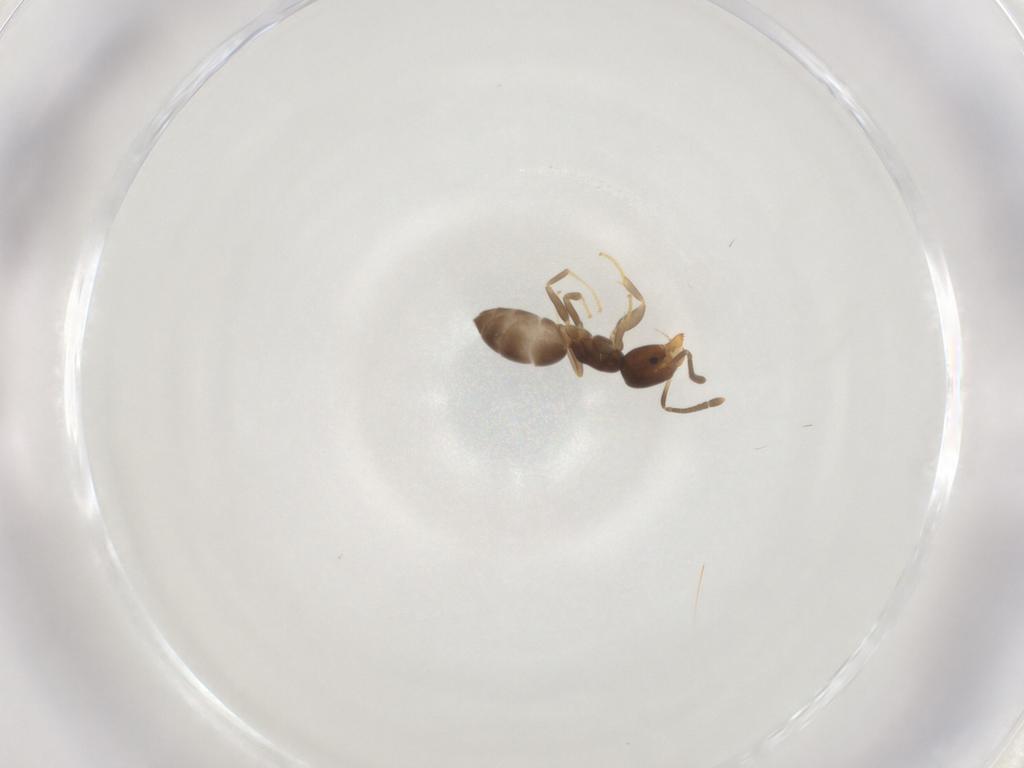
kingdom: Animalia
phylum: Arthropoda
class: Insecta
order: Hymenoptera
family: Formicidae
